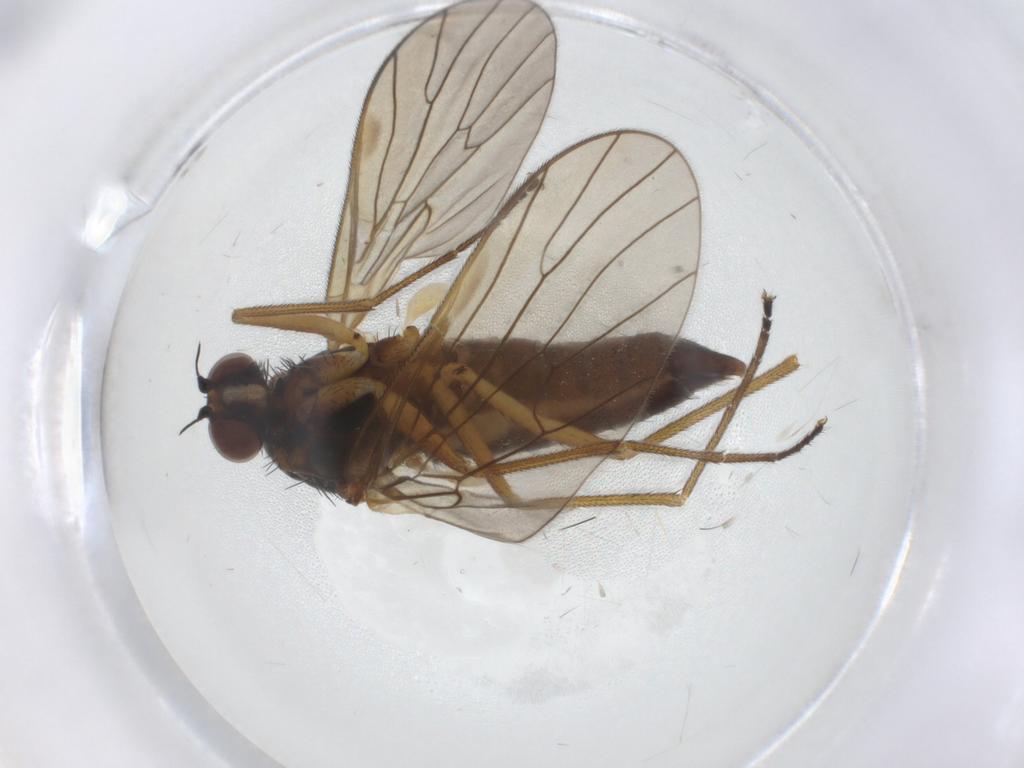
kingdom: Animalia
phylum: Arthropoda
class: Insecta
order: Diptera
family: Brachystomatidae
